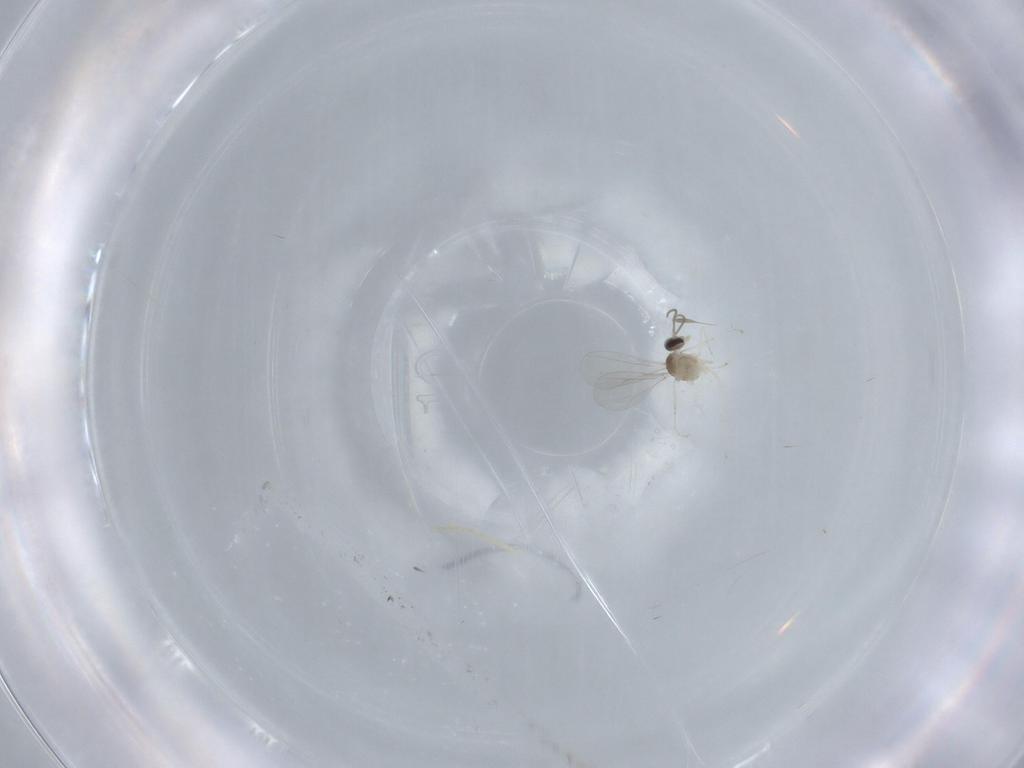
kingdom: Animalia
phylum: Arthropoda
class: Insecta
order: Diptera
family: Cecidomyiidae
